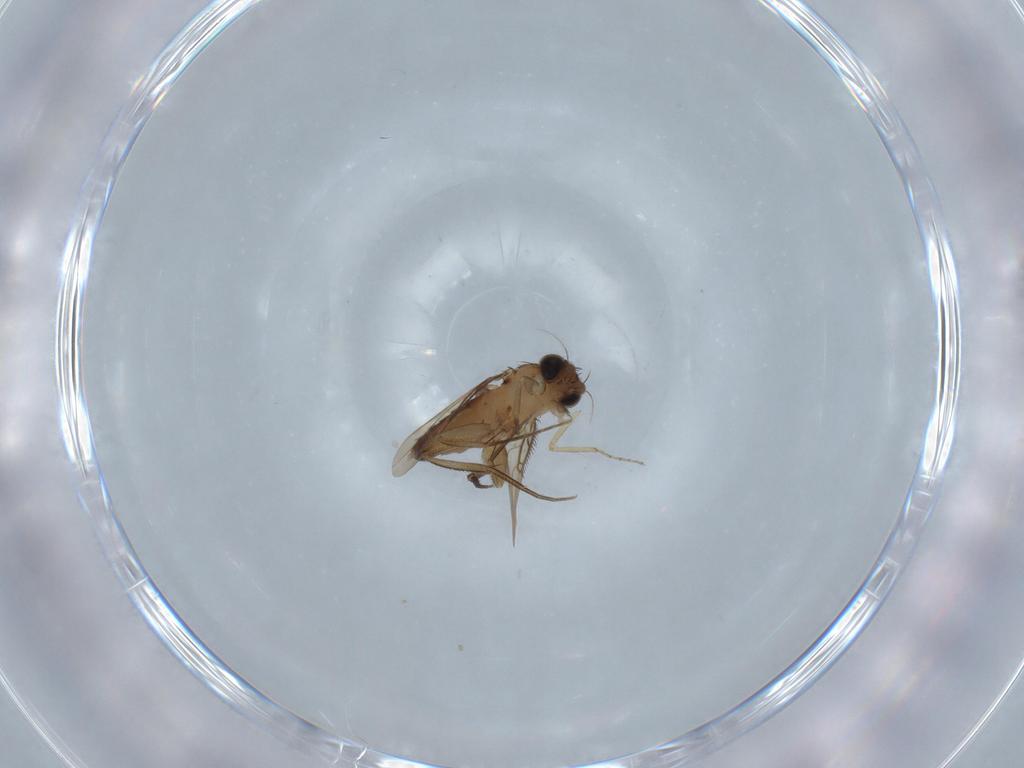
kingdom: Animalia
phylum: Arthropoda
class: Insecta
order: Diptera
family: Phoridae
